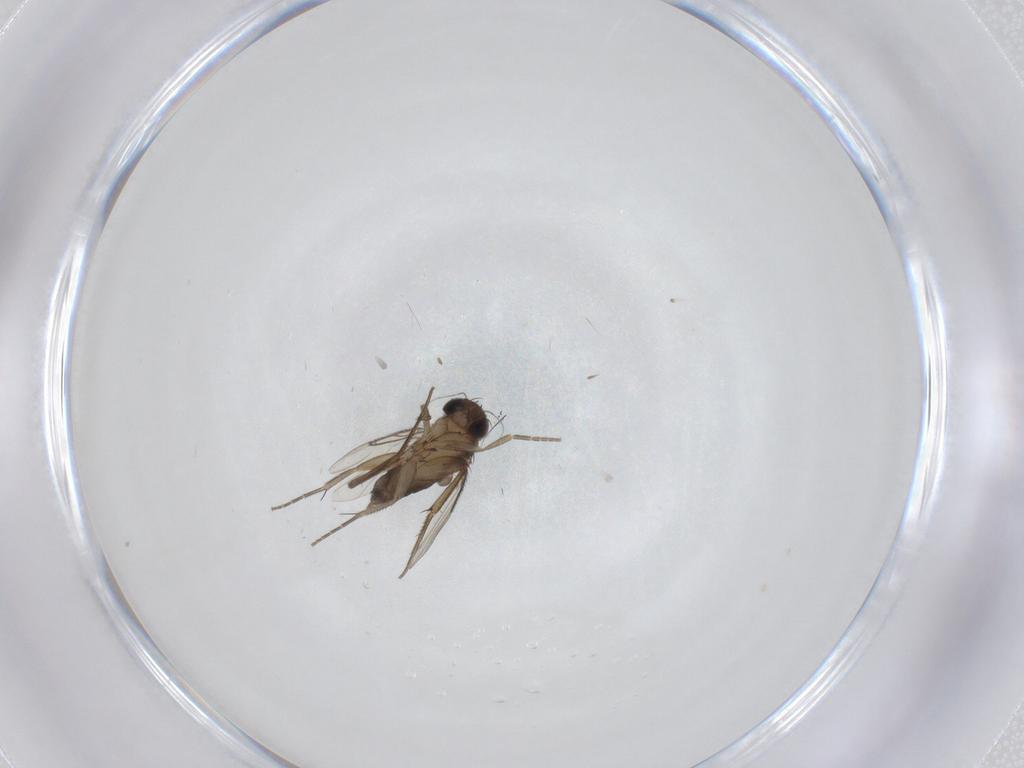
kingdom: Animalia
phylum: Arthropoda
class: Insecta
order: Diptera
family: Phoridae
